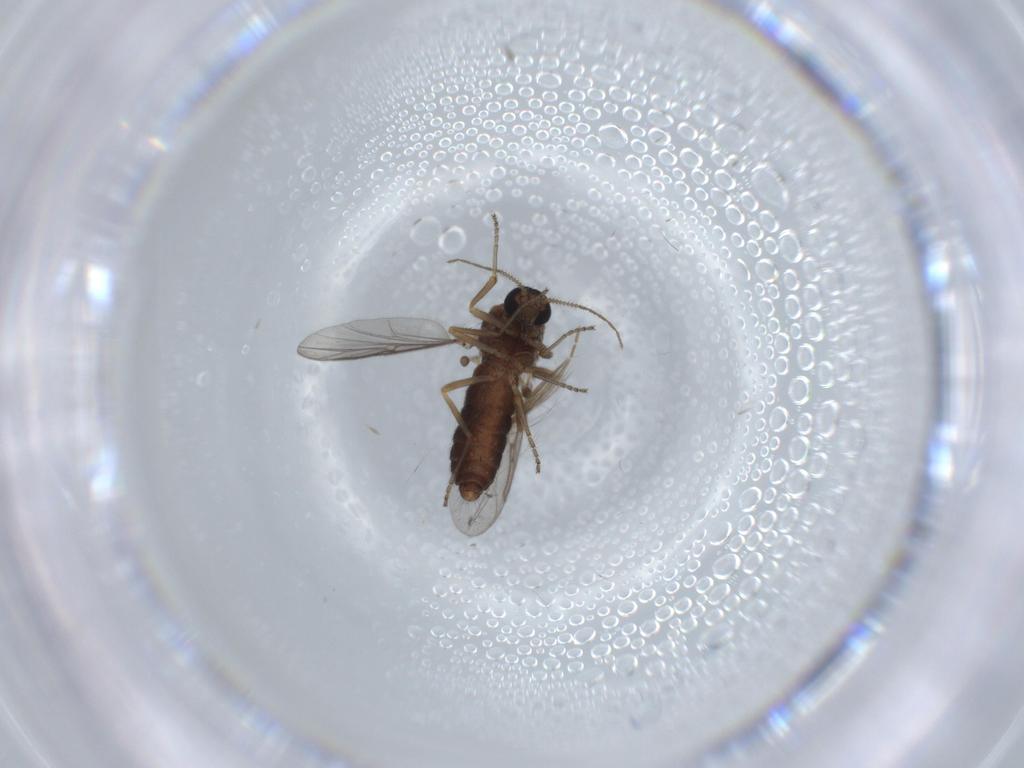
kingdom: Animalia
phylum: Arthropoda
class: Insecta
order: Diptera
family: Ceratopogonidae
